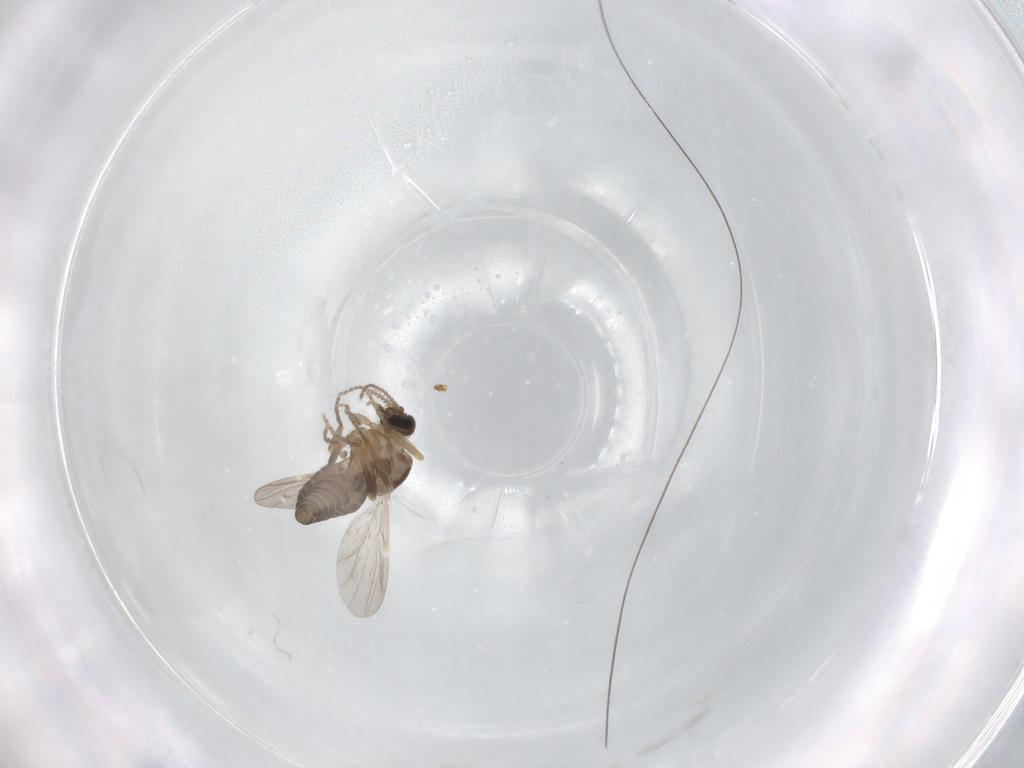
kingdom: Animalia
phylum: Arthropoda
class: Insecta
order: Diptera
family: Ceratopogonidae
